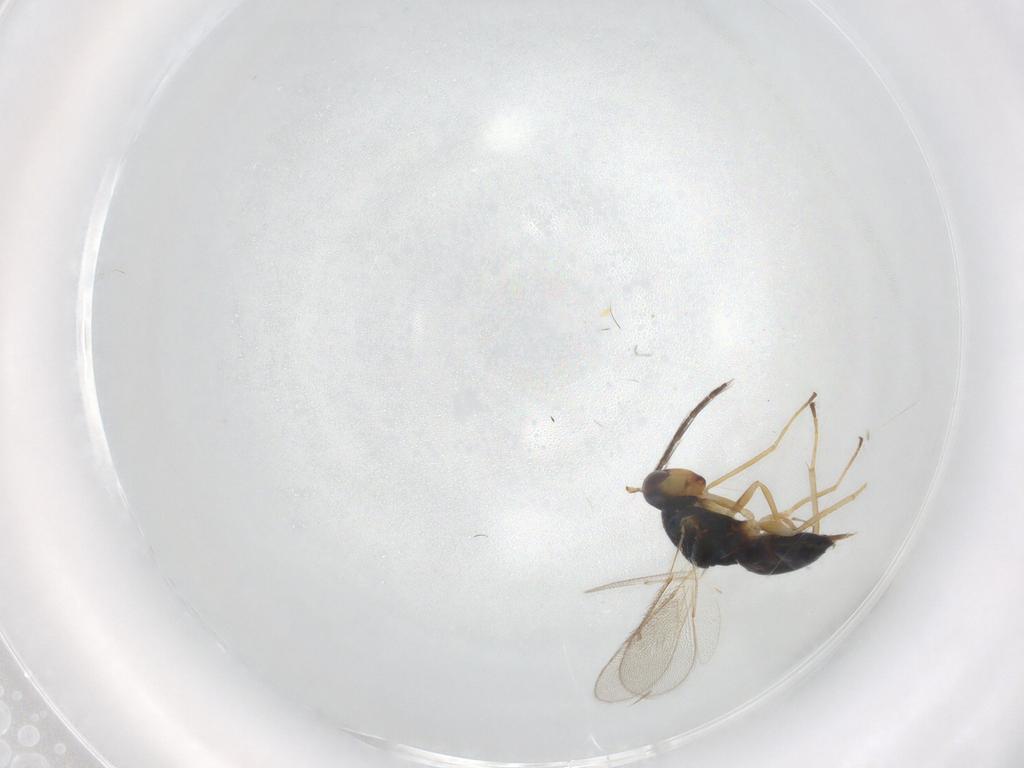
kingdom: Animalia
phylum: Arthropoda
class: Insecta
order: Hymenoptera
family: Eulophidae
